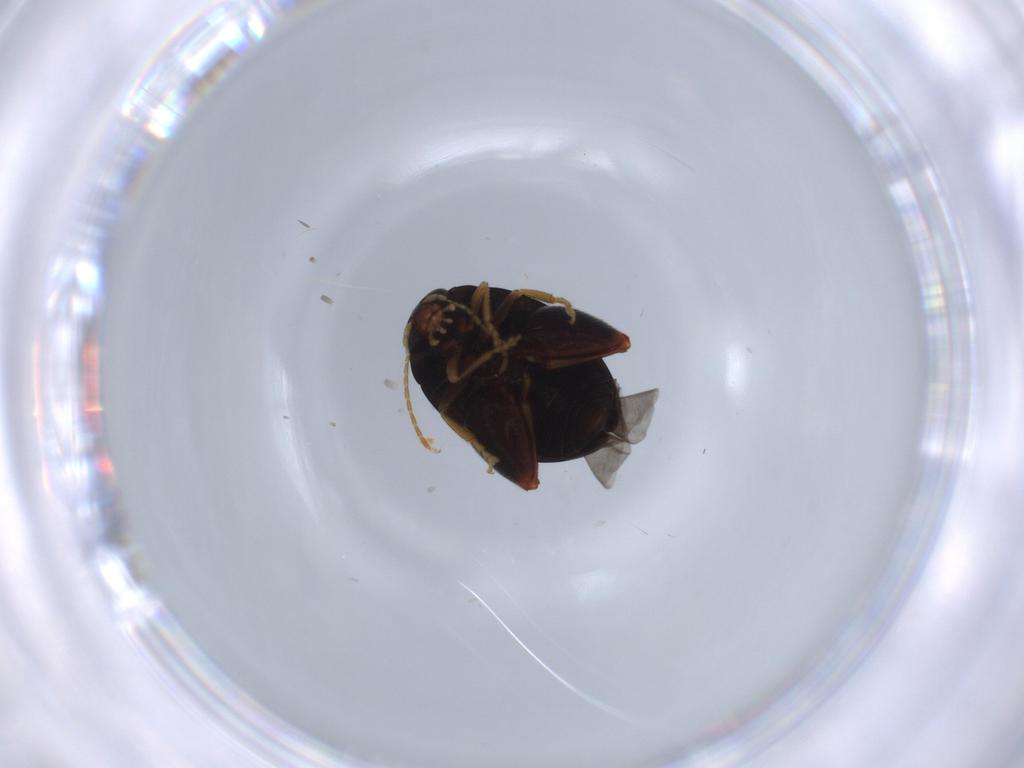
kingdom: Animalia
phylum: Arthropoda
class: Insecta
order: Coleoptera
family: Chrysomelidae
